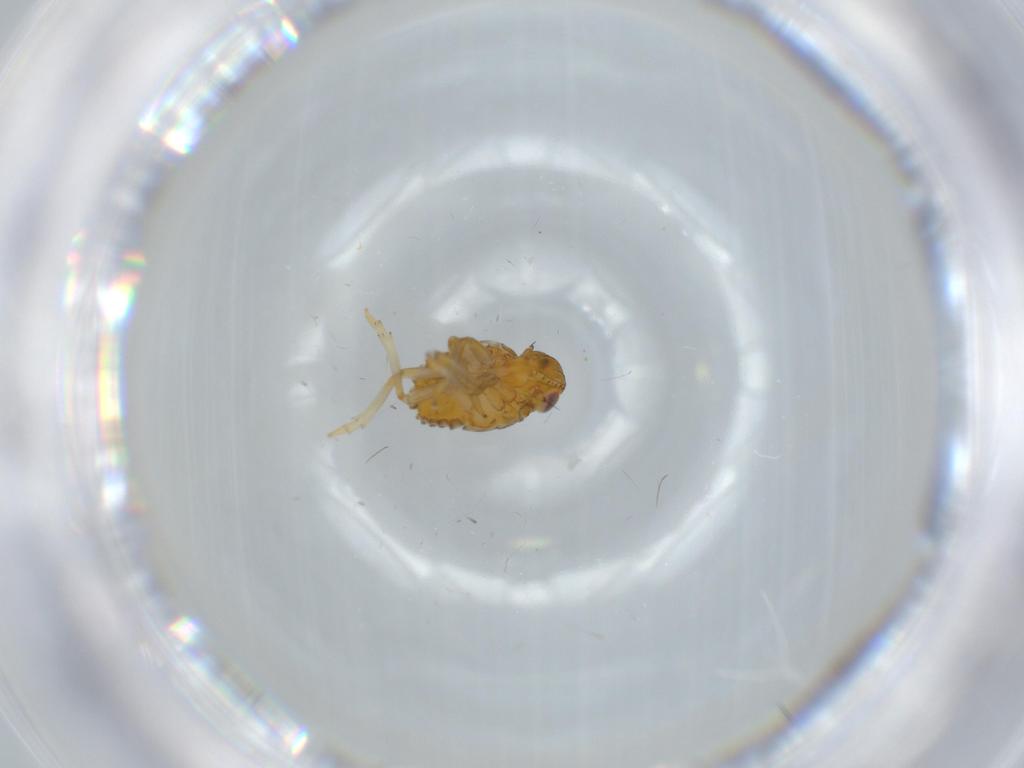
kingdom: Animalia
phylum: Arthropoda
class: Insecta
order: Hemiptera
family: Issidae
